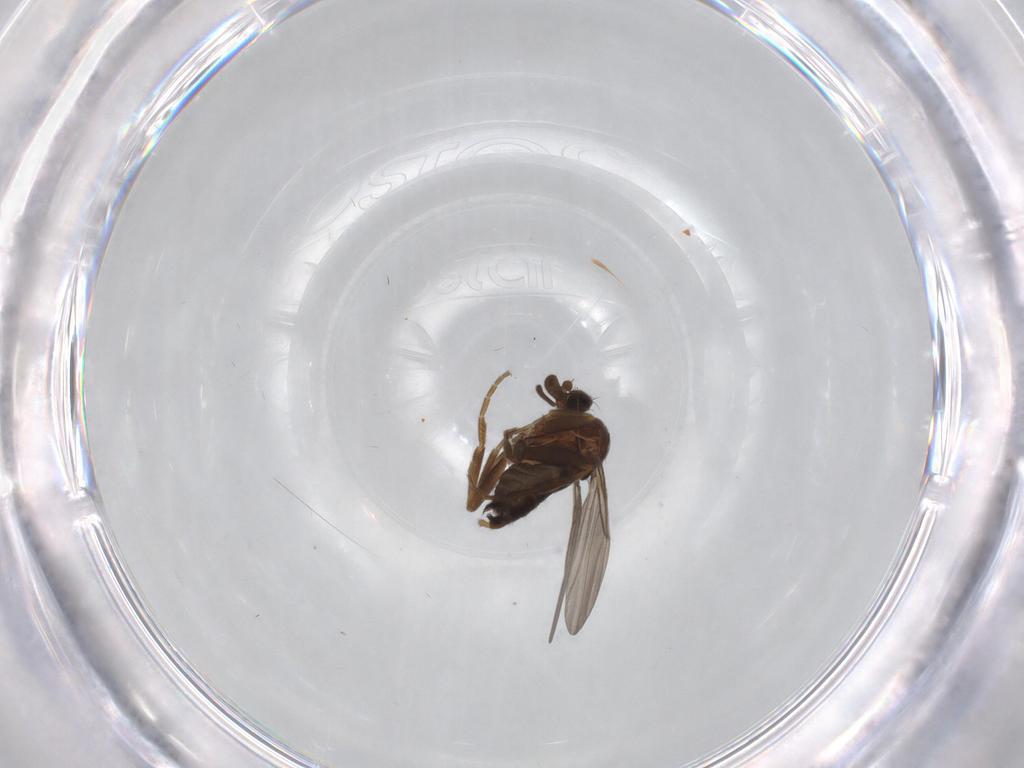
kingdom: Animalia
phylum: Arthropoda
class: Insecta
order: Diptera
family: Phoridae
